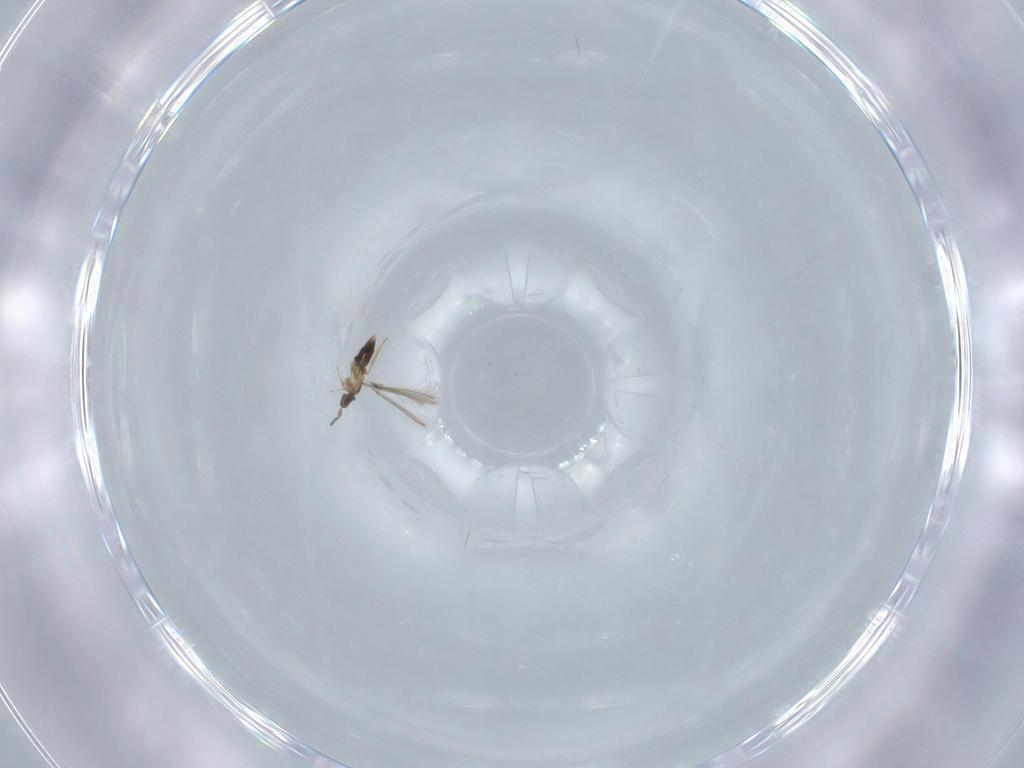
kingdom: Animalia
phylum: Arthropoda
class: Insecta
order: Hymenoptera
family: Mymaridae
